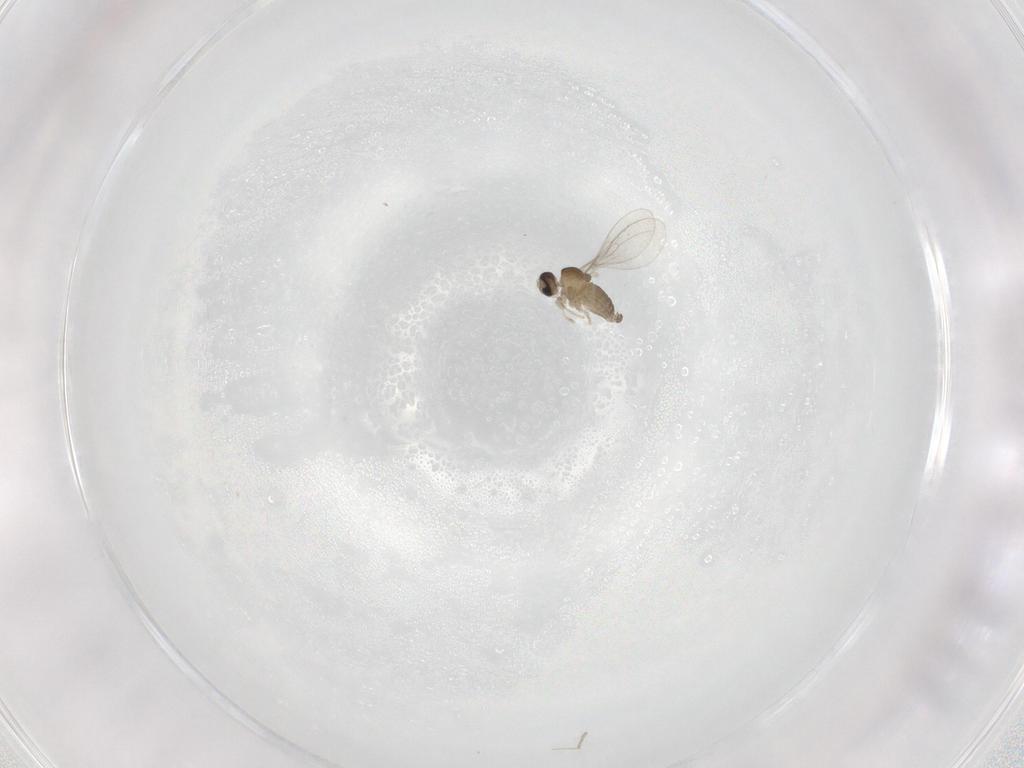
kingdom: Animalia
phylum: Arthropoda
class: Insecta
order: Diptera
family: Cecidomyiidae
